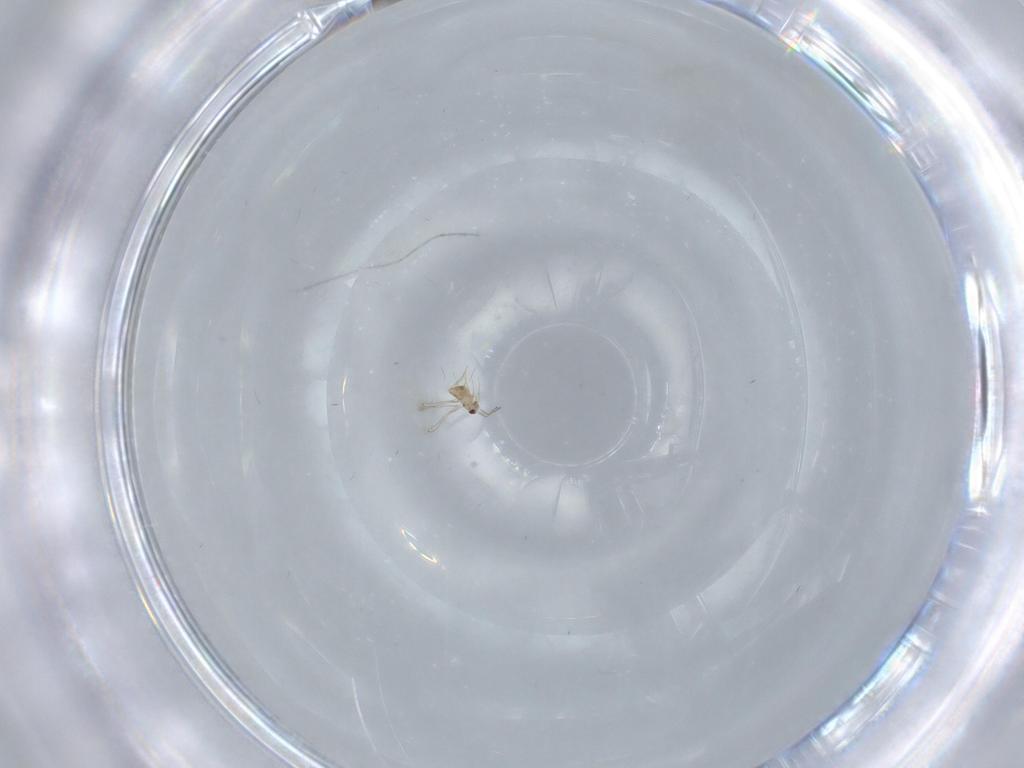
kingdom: Animalia
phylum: Arthropoda
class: Insecta
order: Hymenoptera
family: Mymaridae
